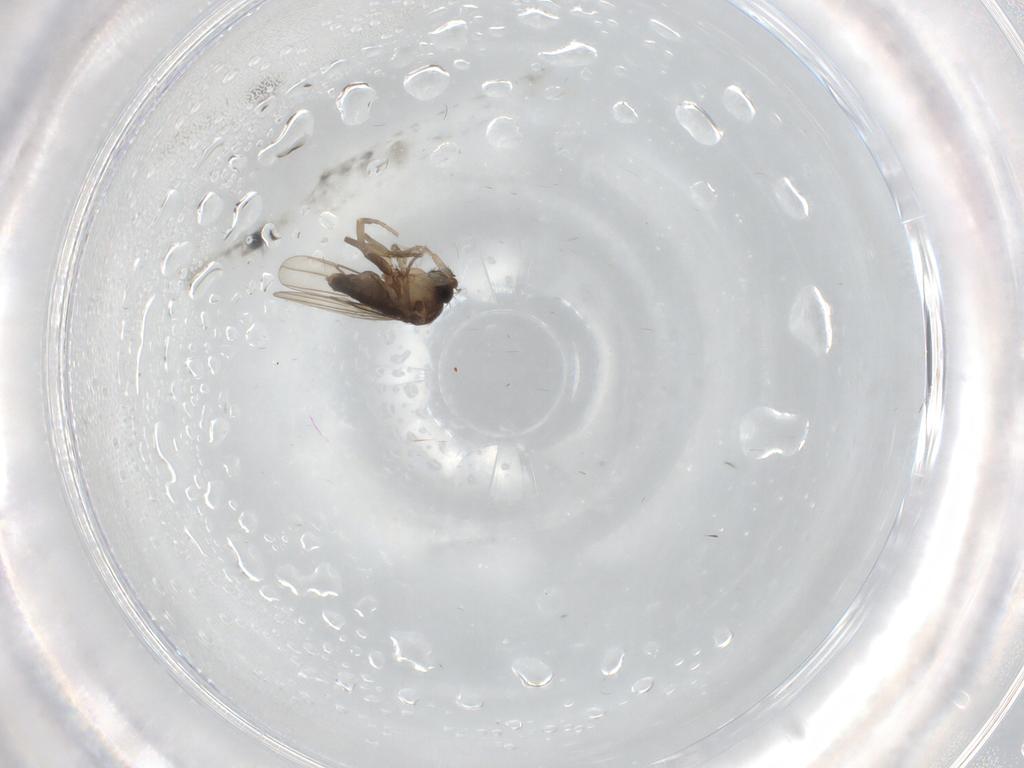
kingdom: Animalia
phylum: Arthropoda
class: Insecta
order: Diptera
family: Phoridae
